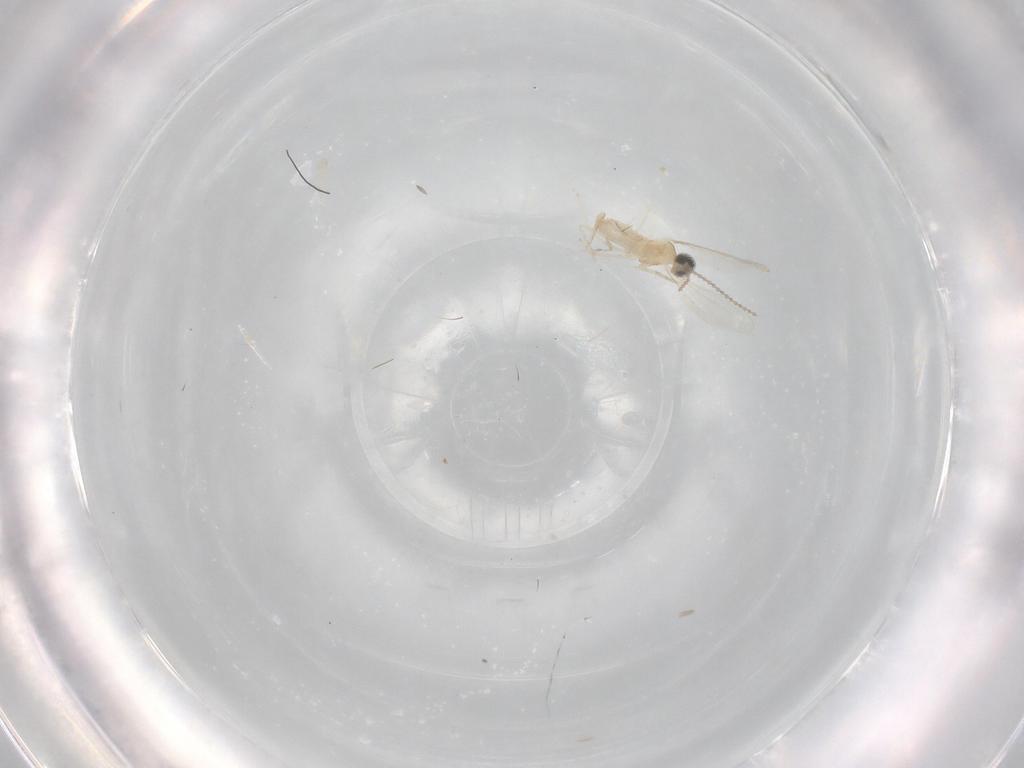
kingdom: Animalia
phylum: Arthropoda
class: Insecta
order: Diptera
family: Cecidomyiidae
